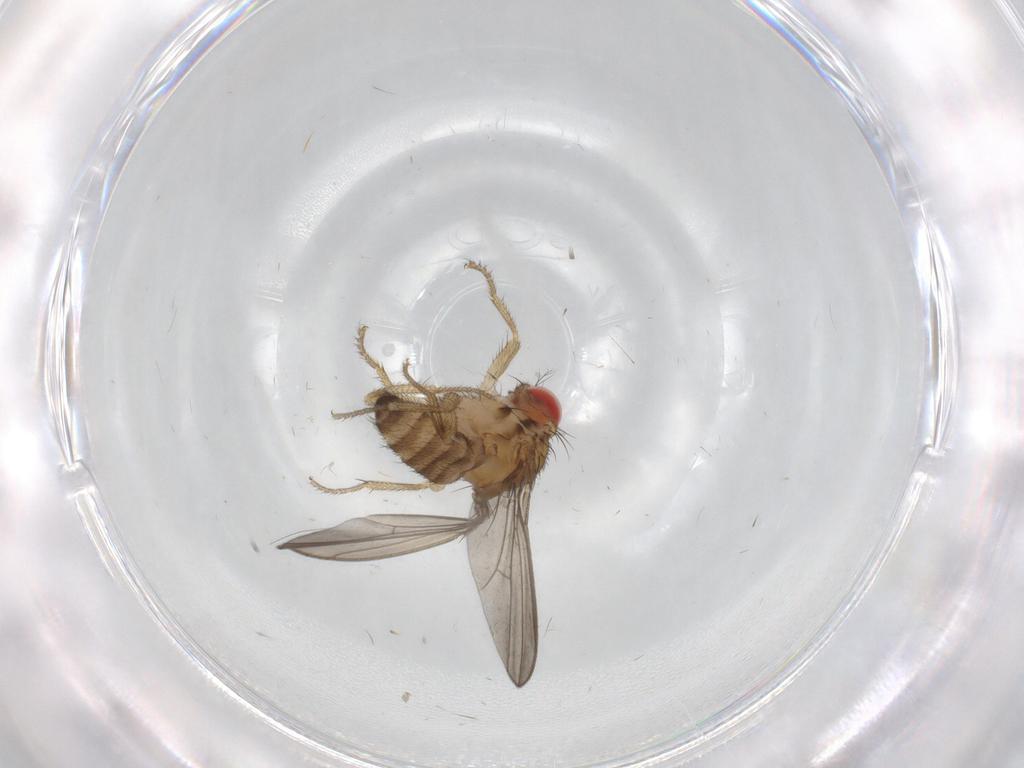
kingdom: Animalia
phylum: Arthropoda
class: Insecta
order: Diptera
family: Drosophilidae
